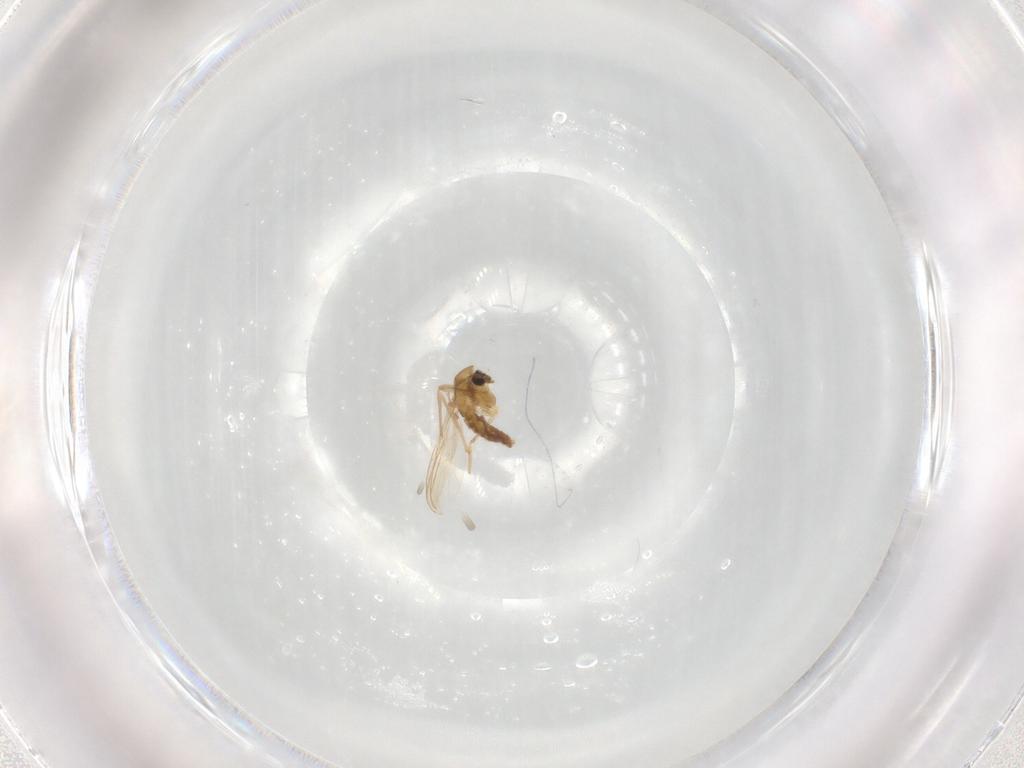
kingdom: Animalia
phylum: Arthropoda
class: Insecta
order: Diptera
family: Chironomidae
